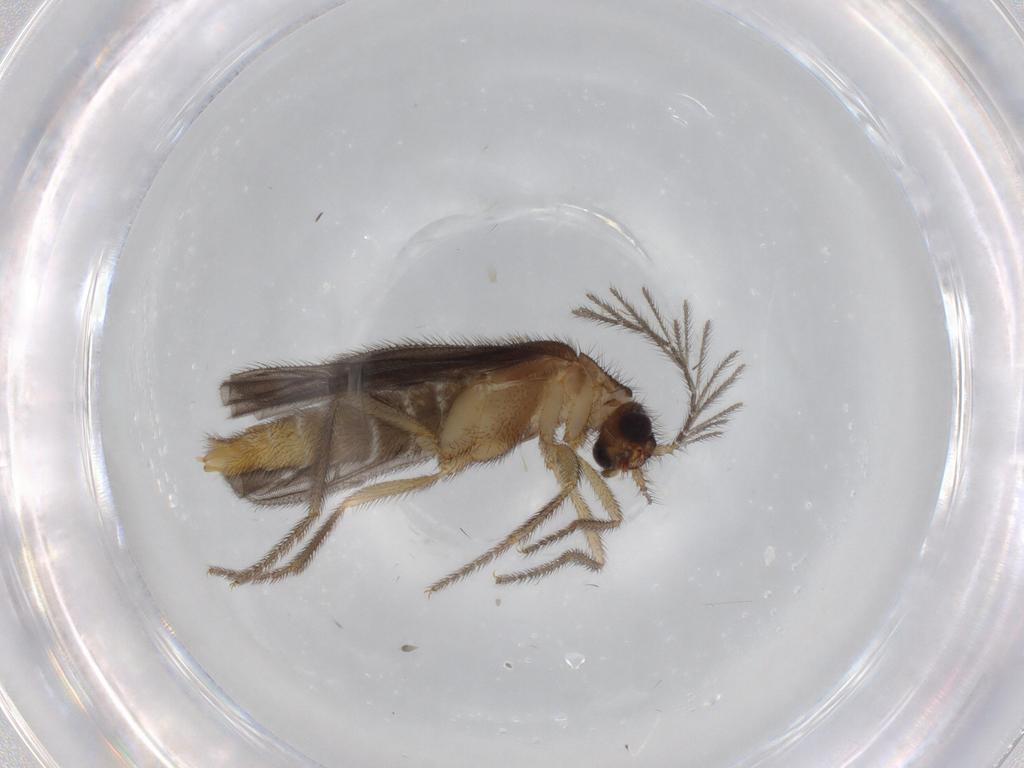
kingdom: Animalia
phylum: Arthropoda
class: Insecta
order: Coleoptera
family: Phengodidae
